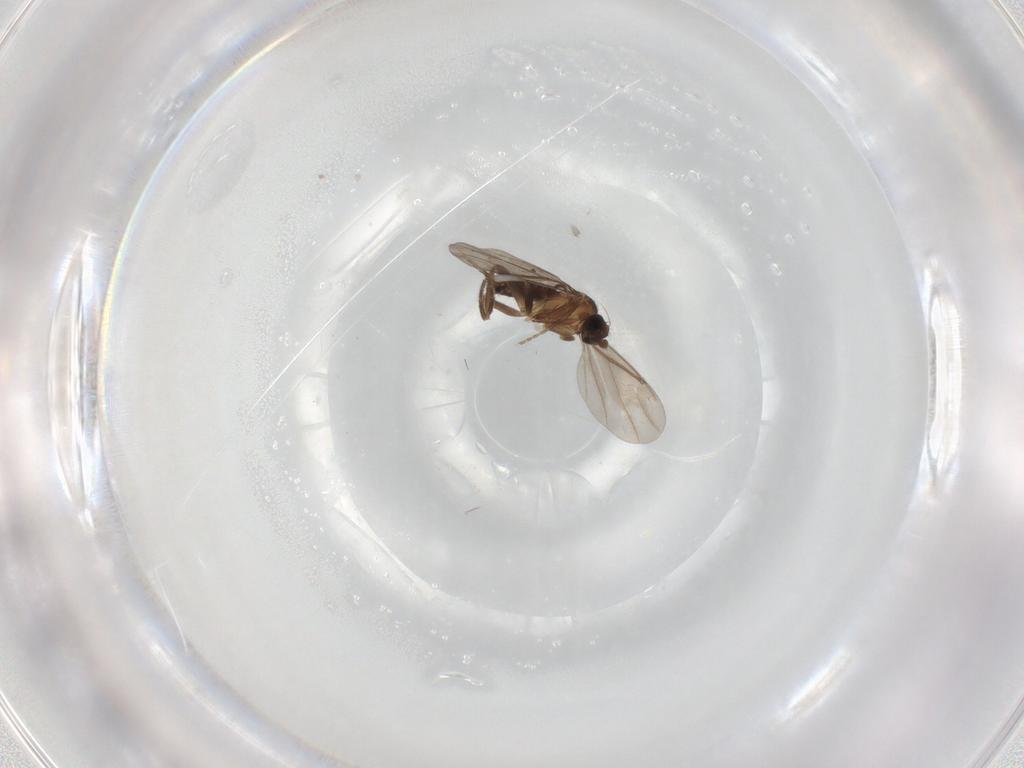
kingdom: Animalia
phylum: Arthropoda
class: Insecta
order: Diptera
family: Phoridae
